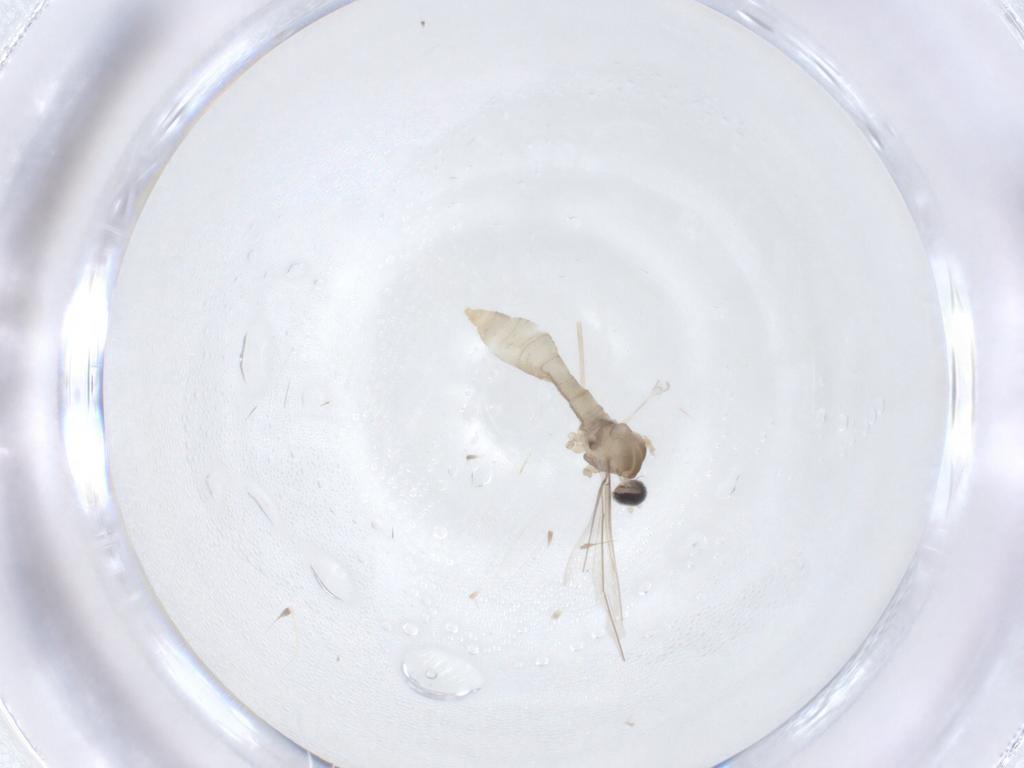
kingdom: Animalia
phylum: Arthropoda
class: Insecta
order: Diptera
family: Cecidomyiidae
